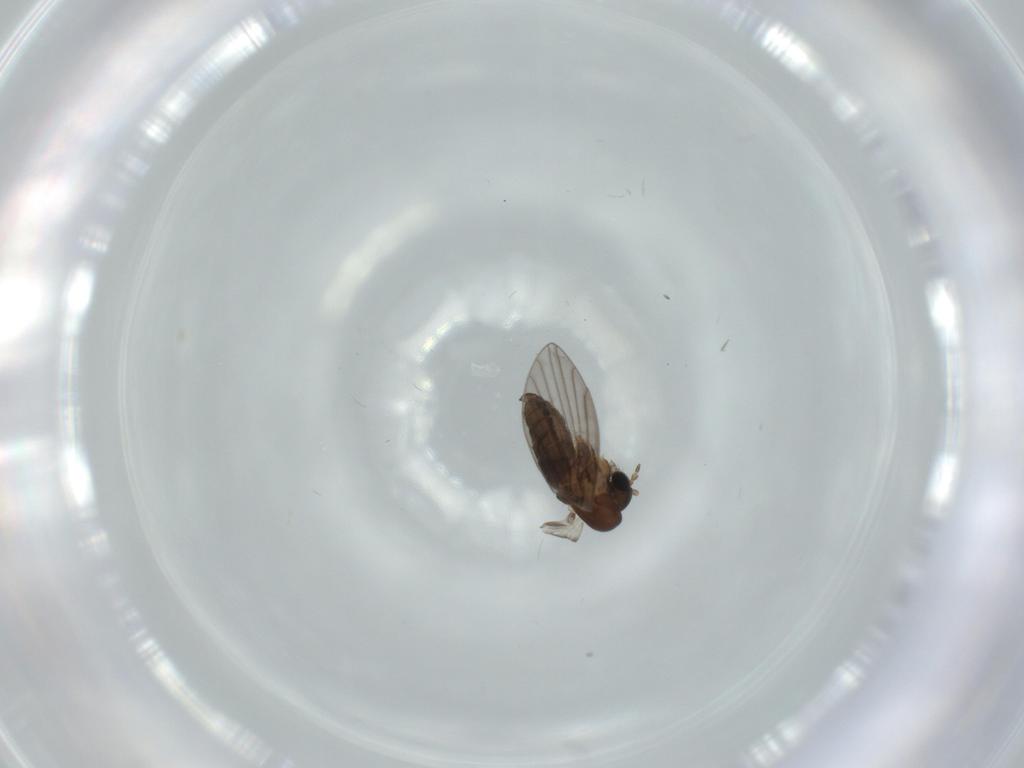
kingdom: Animalia
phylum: Arthropoda
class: Insecta
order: Diptera
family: Psychodidae
